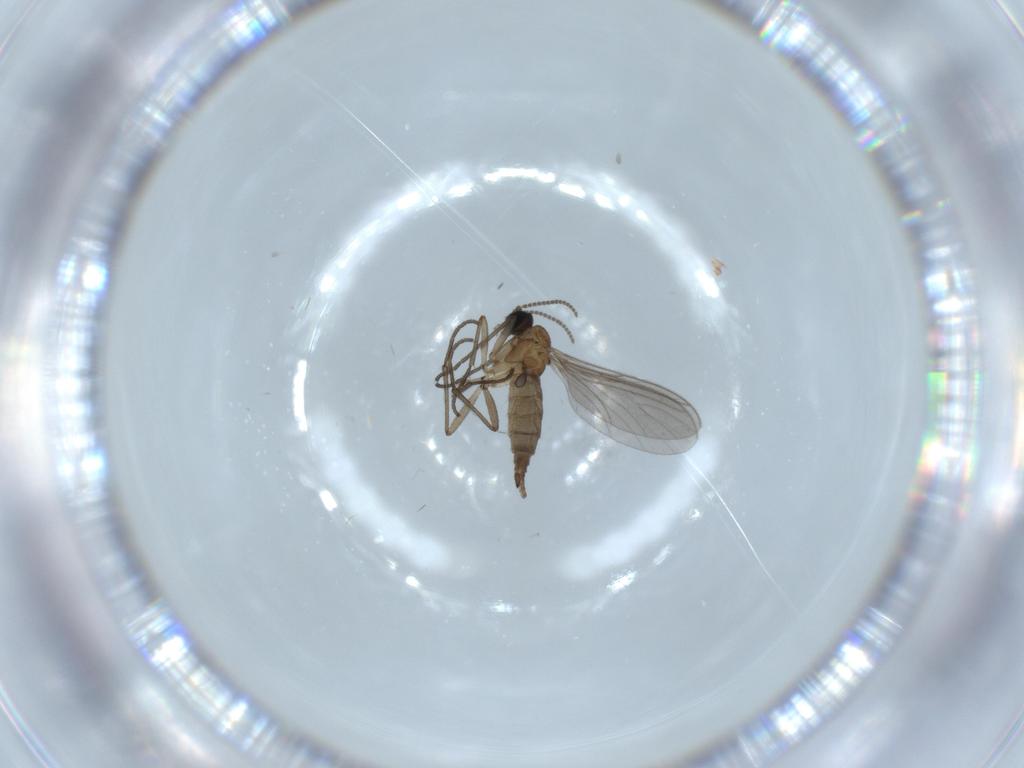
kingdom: Animalia
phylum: Arthropoda
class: Insecta
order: Diptera
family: Sciaridae
